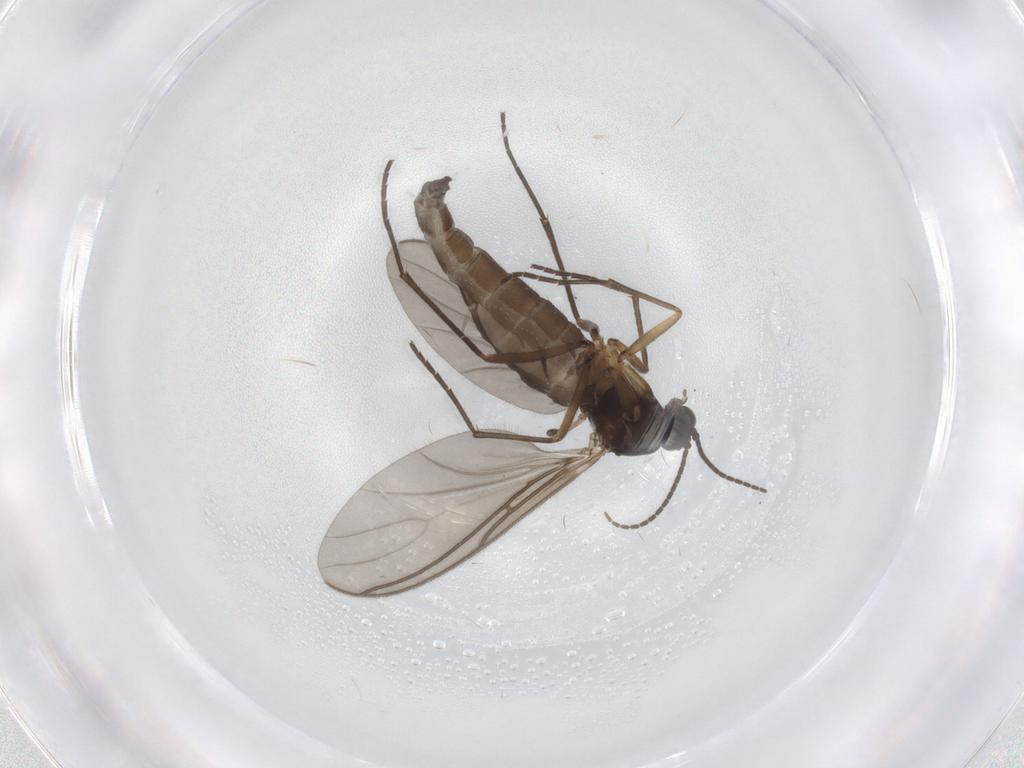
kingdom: Animalia
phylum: Arthropoda
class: Insecta
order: Diptera
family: Sciaridae
